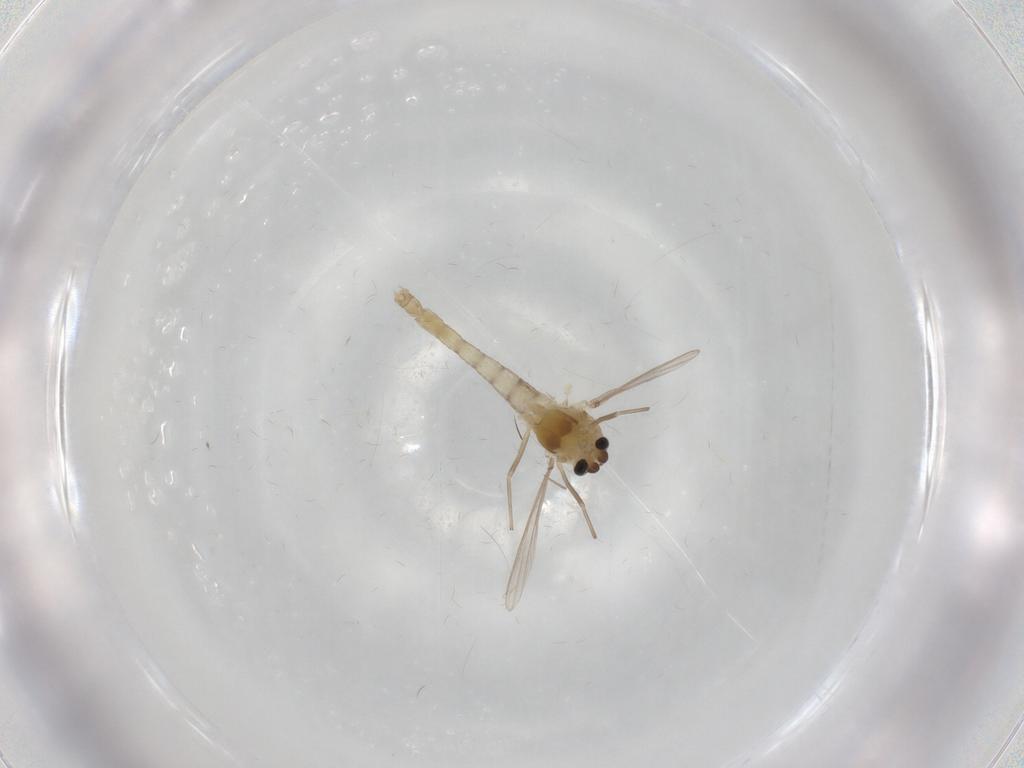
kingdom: Animalia
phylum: Arthropoda
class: Insecta
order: Diptera
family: Chironomidae
